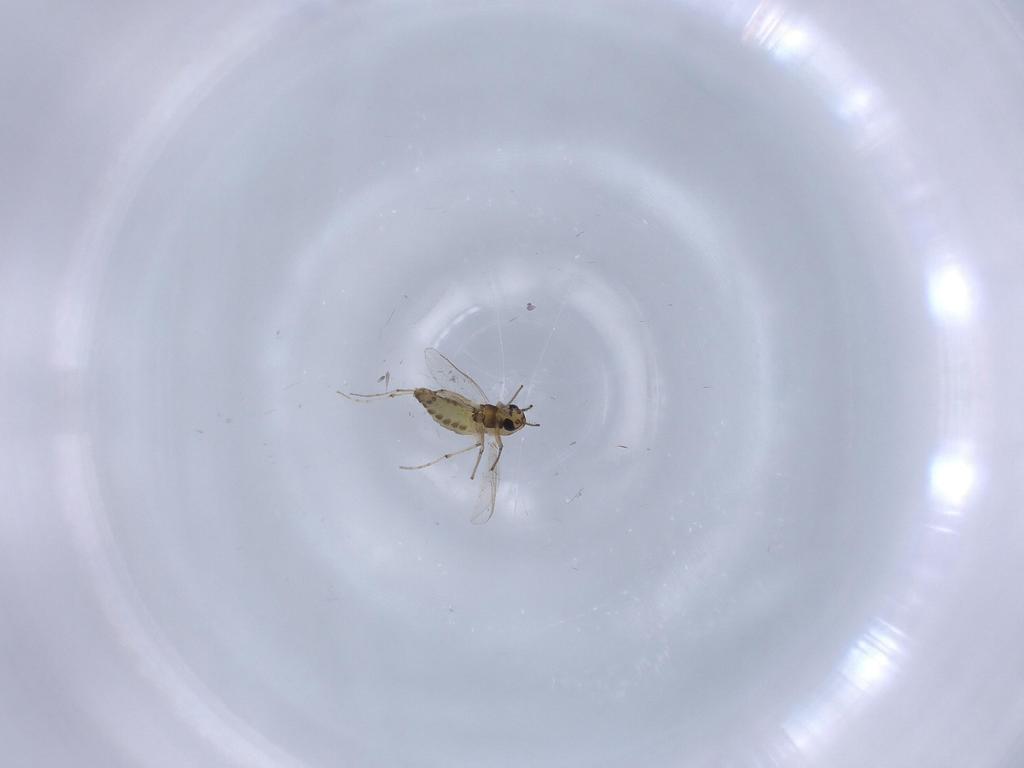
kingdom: Animalia
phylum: Arthropoda
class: Insecta
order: Diptera
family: Chironomidae
